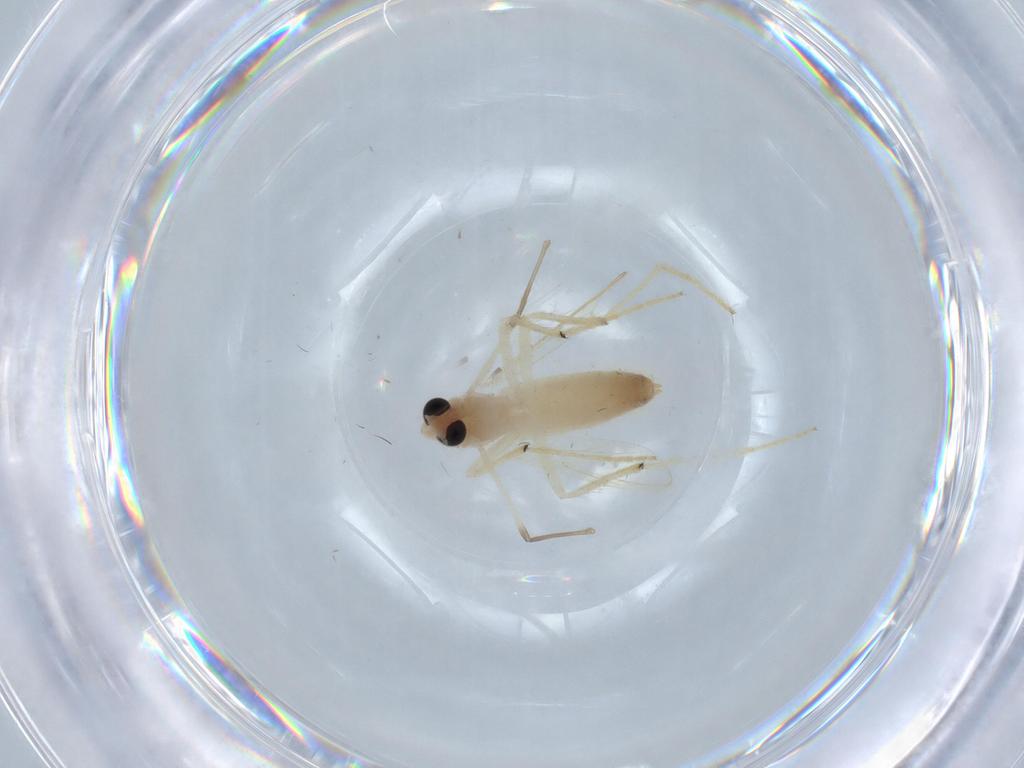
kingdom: Animalia
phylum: Arthropoda
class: Insecta
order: Diptera
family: Chironomidae
